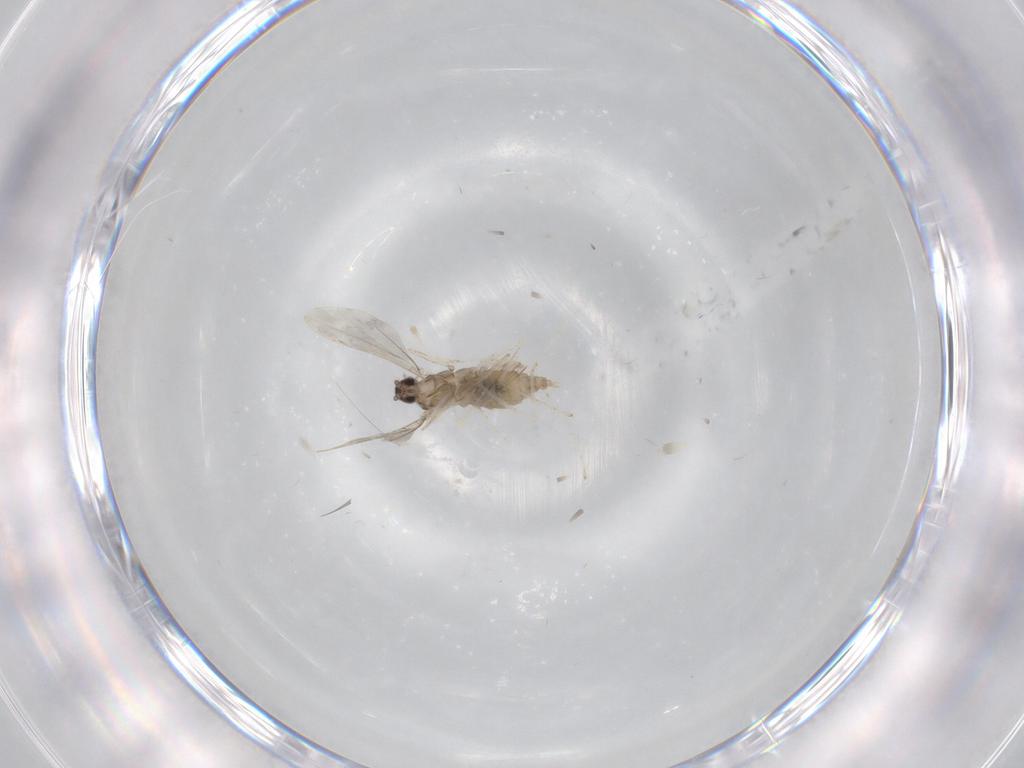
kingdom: Animalia
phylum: Arthropoda
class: Insecta
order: Diptera
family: Cecidomyiidae
